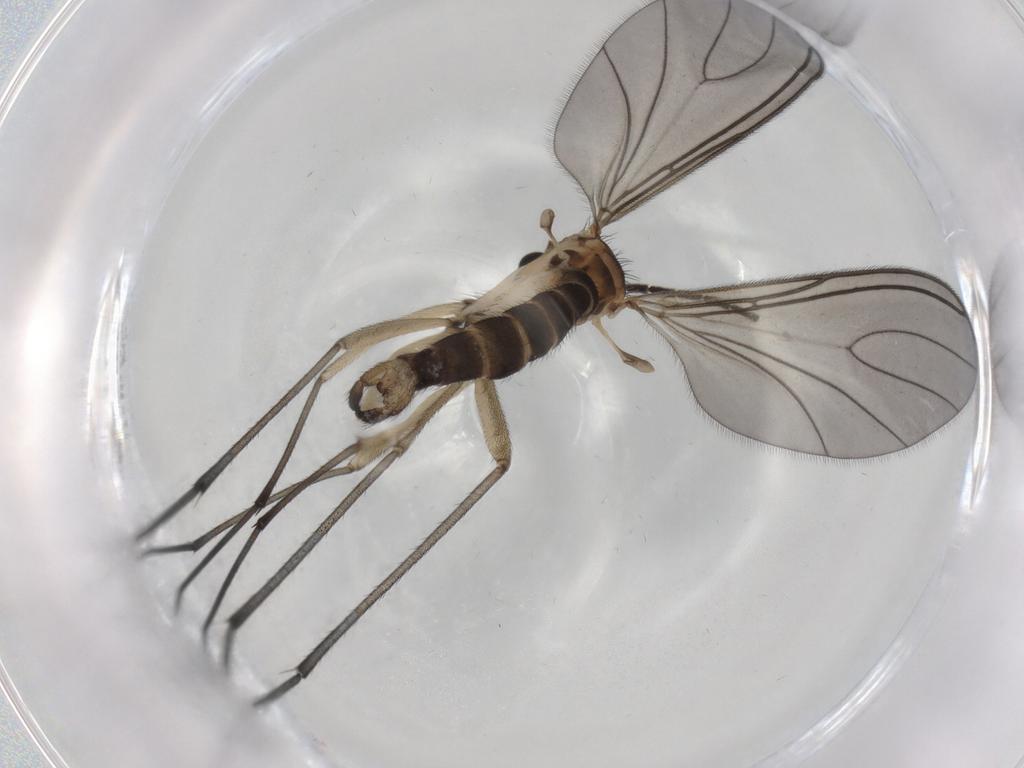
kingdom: Animalia
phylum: Arthropoda
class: Insecta
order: Diptera
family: Sciaridae
